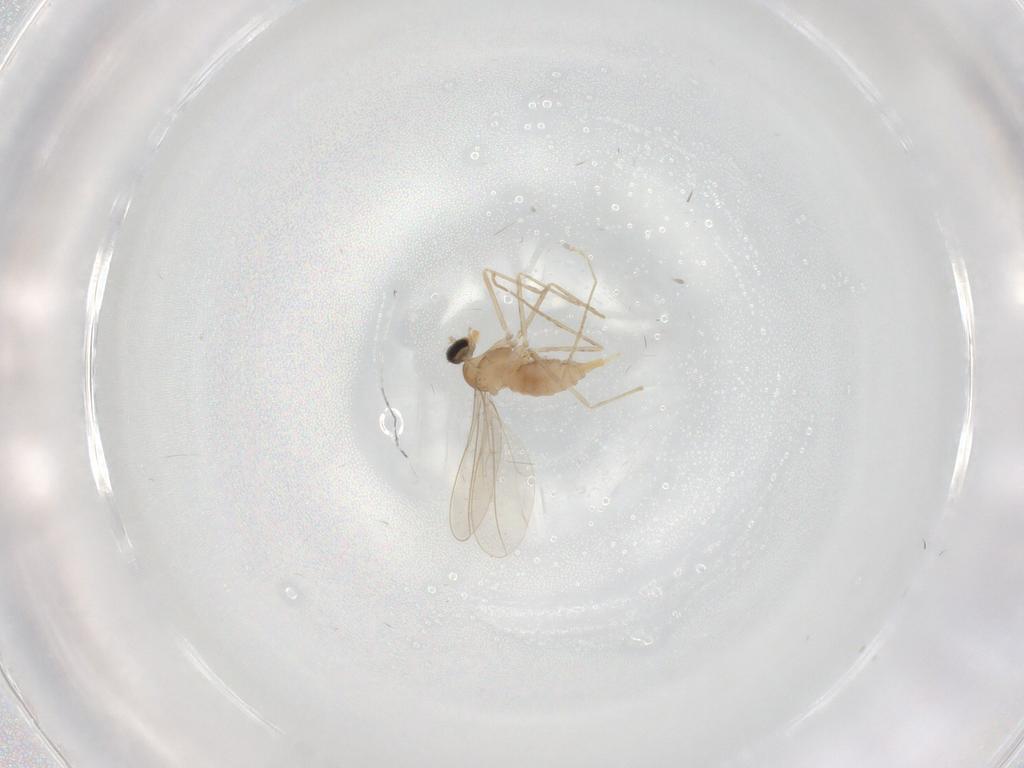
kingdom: Animalia
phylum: Arthropoda
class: Insecta
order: Diptera
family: Cecidomyiidae
